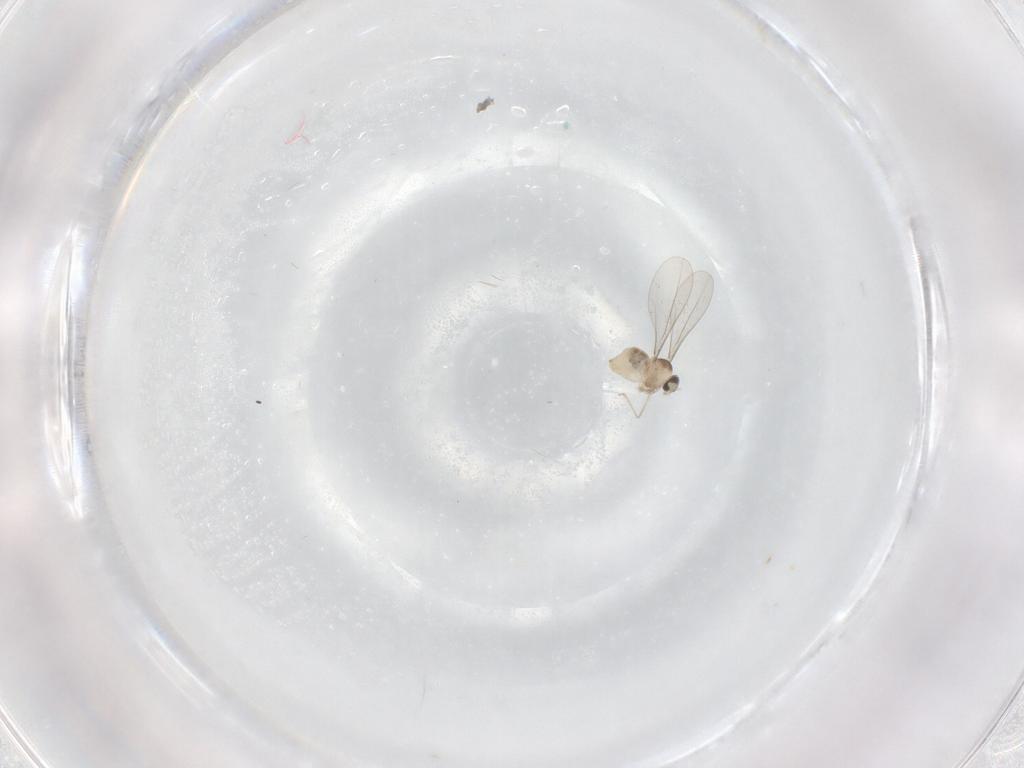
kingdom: Animalia
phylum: Arthropoda
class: Insecta
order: Diptera
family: Cecidomyiidae
